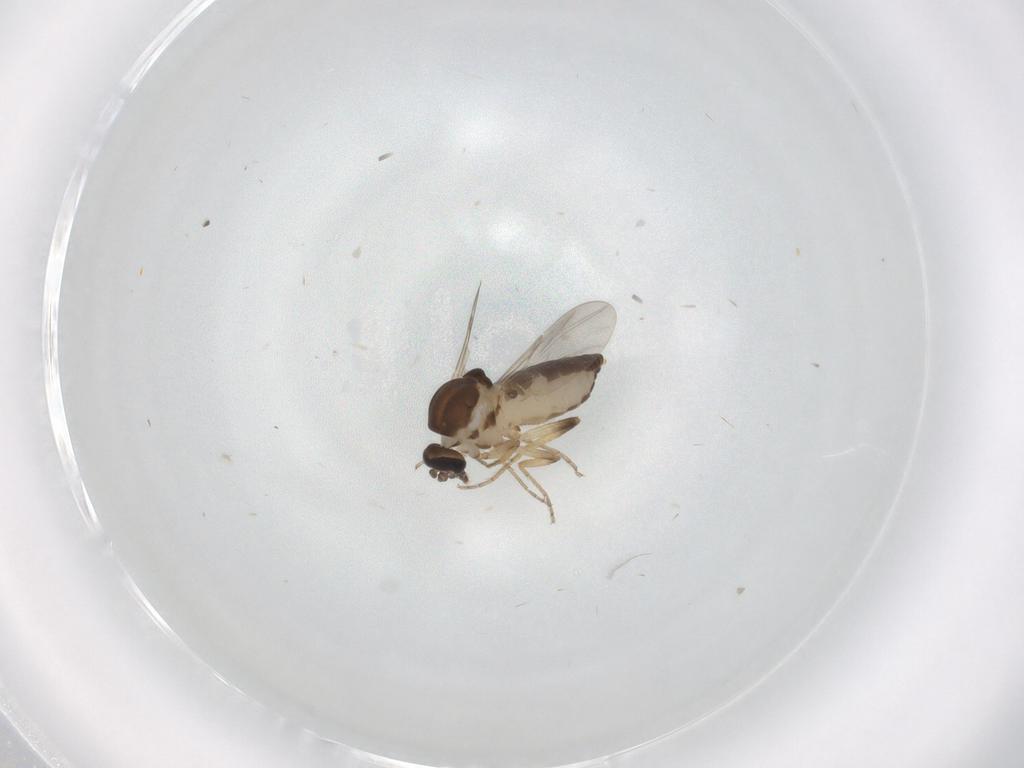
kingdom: Animalia
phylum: Arthropoda
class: Insecta
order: Diptera
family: Ceratopogonidae
